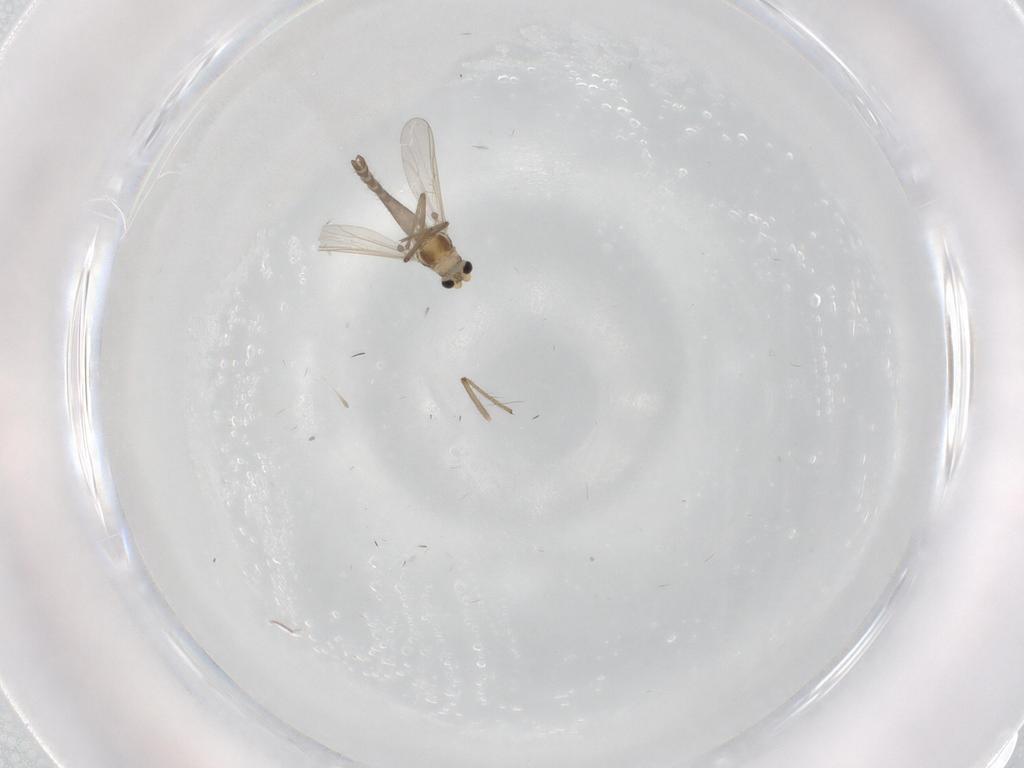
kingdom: Animalia
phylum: Arthropoda
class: Insecta
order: Diptera
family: Chironomidae
